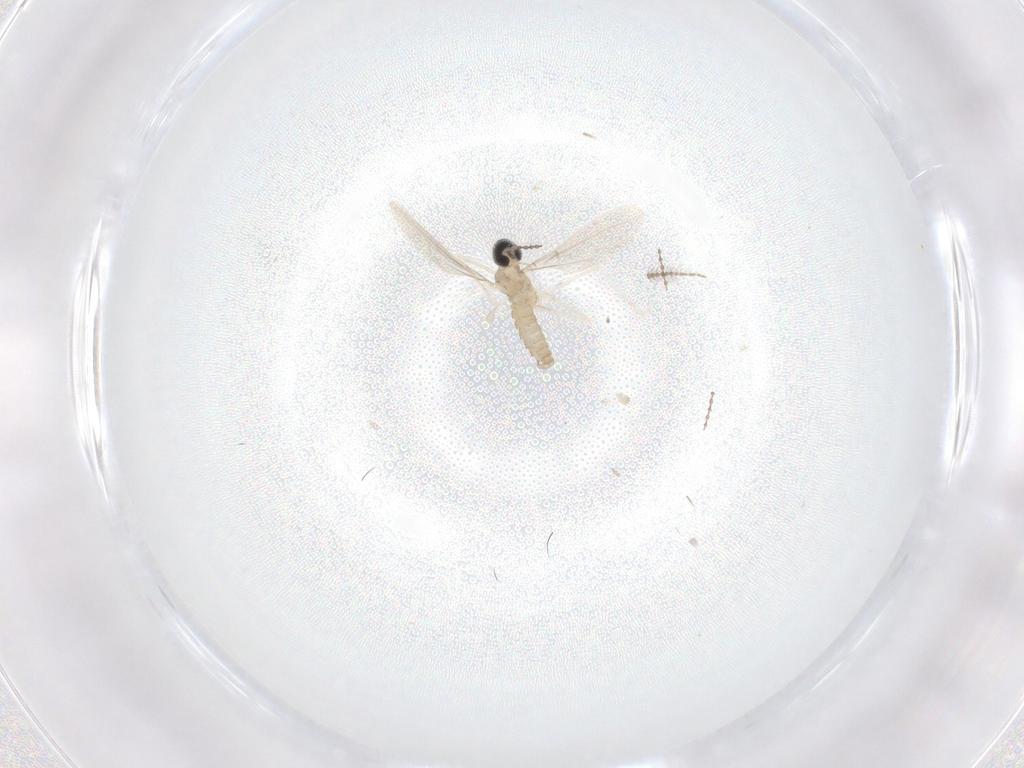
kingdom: Animalia
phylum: Arthropoda
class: Insecta
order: Diptera
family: Cecidomyiidae
